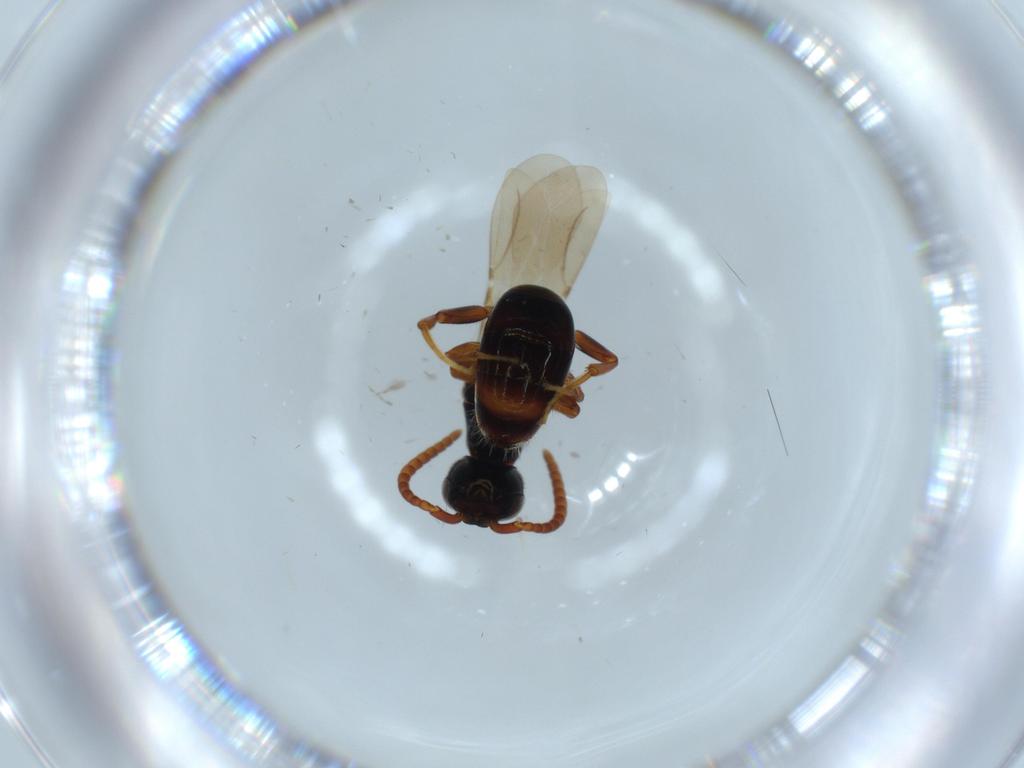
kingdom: Animalia
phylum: Arthropoda
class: Insecta
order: Hymenoptera
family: Bethylidae
